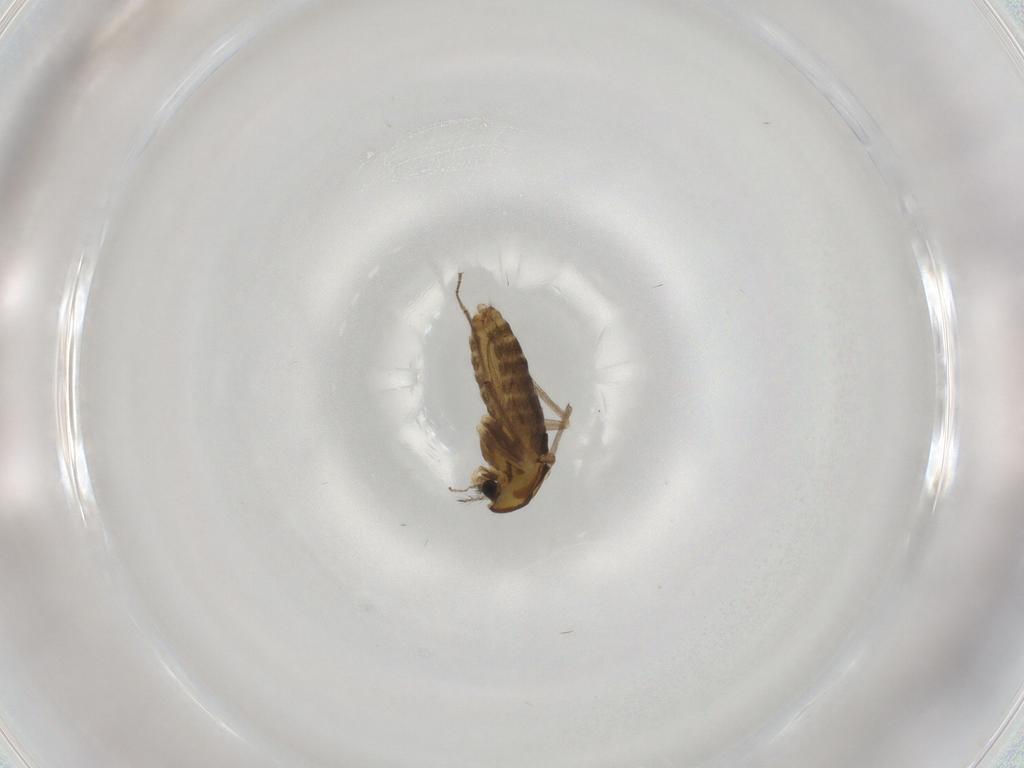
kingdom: Animalia
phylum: Arthropoda
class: Insecta
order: Diptera
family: Chironomidae
